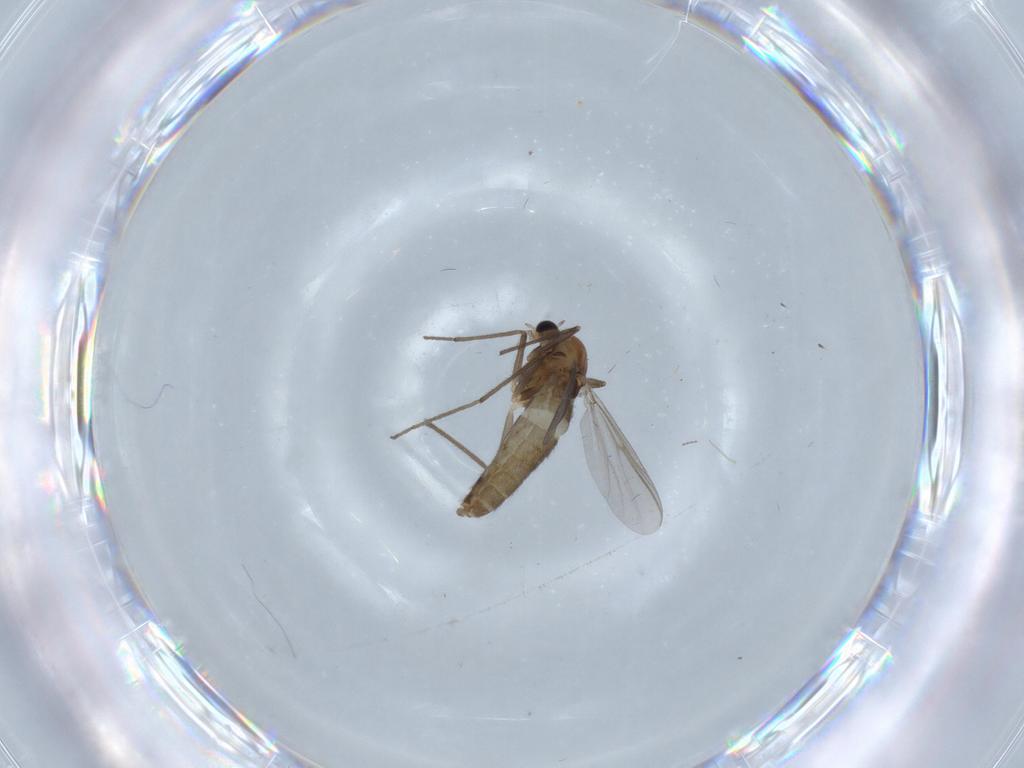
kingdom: Animalia
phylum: Arthropoda
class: Insecta
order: Diptera
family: Chironomidae
